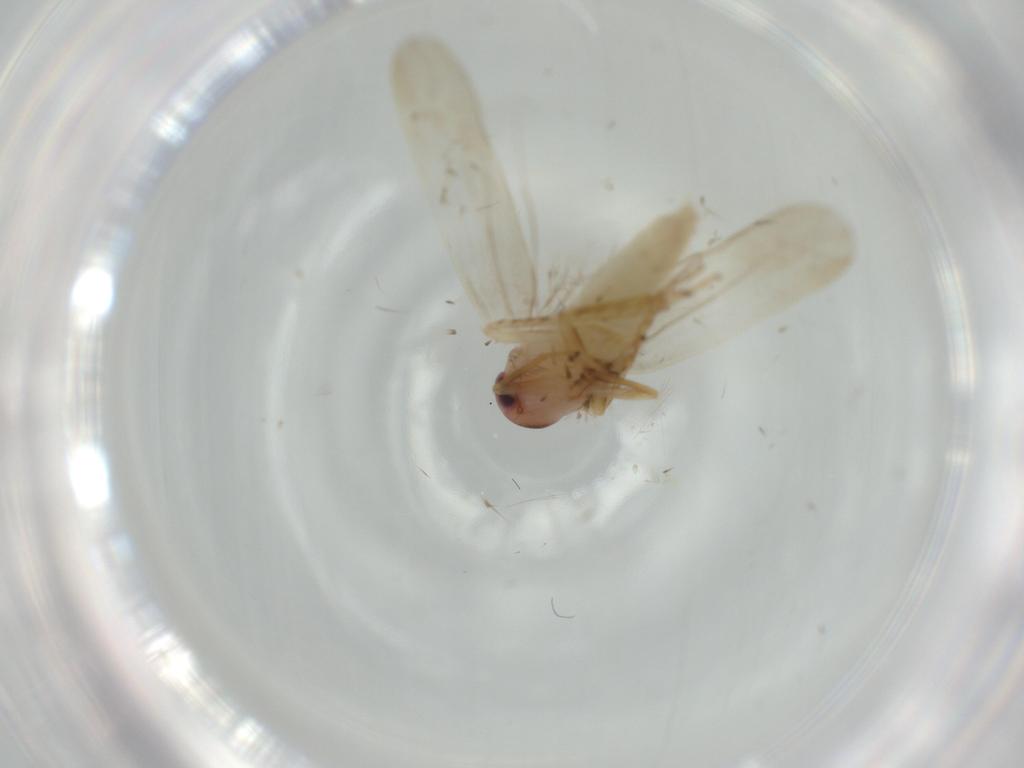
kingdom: Animalia
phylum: Arthropoda
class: Insecta
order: Hemiptera
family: Cicadellidae
